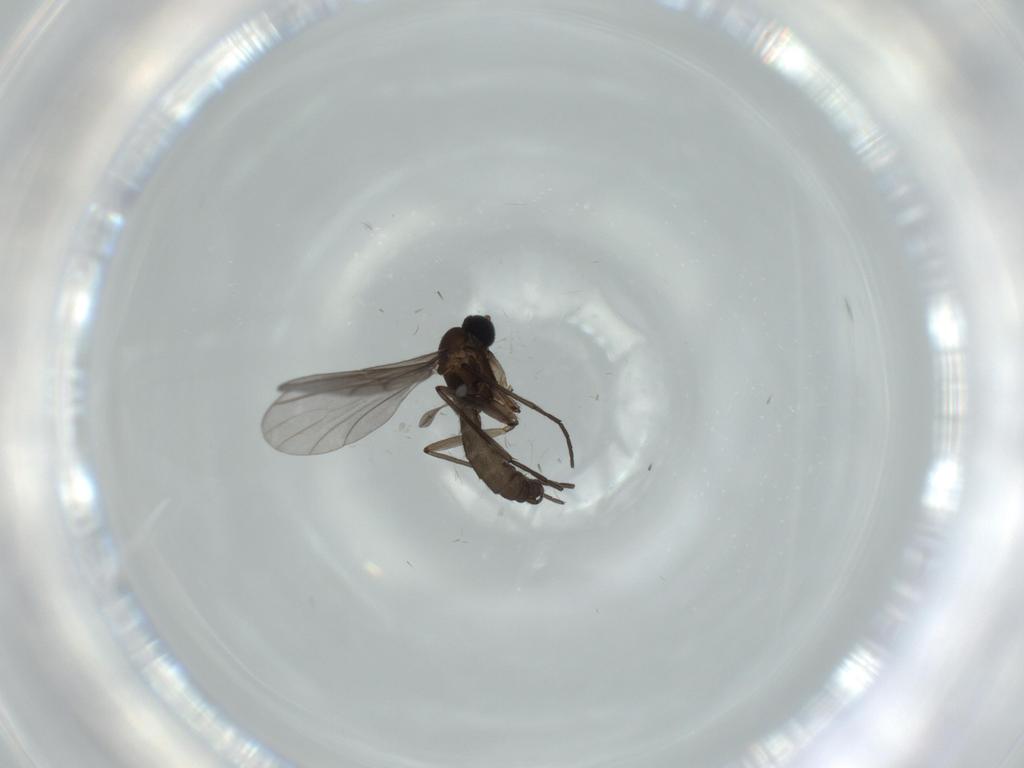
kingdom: Animalia
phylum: Arthropoda
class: Insecta
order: Diptera
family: Sciaridae
